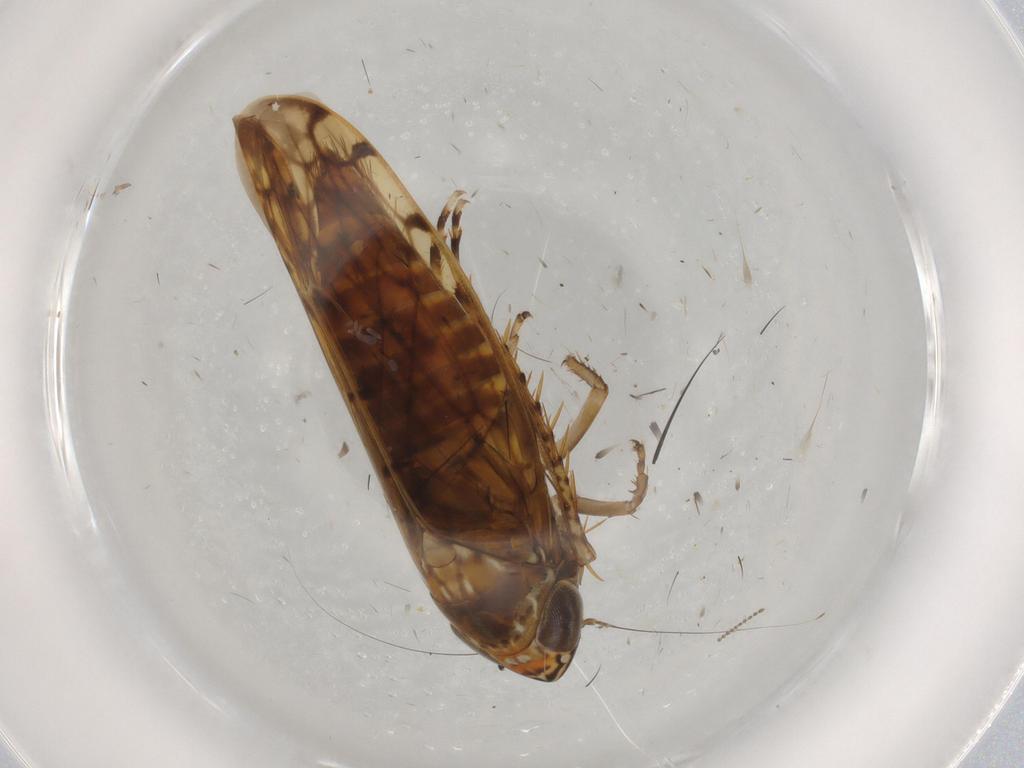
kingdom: Animalia
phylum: Arthropoda
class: Insecta
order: Hemiptera
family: Cicadellidae
